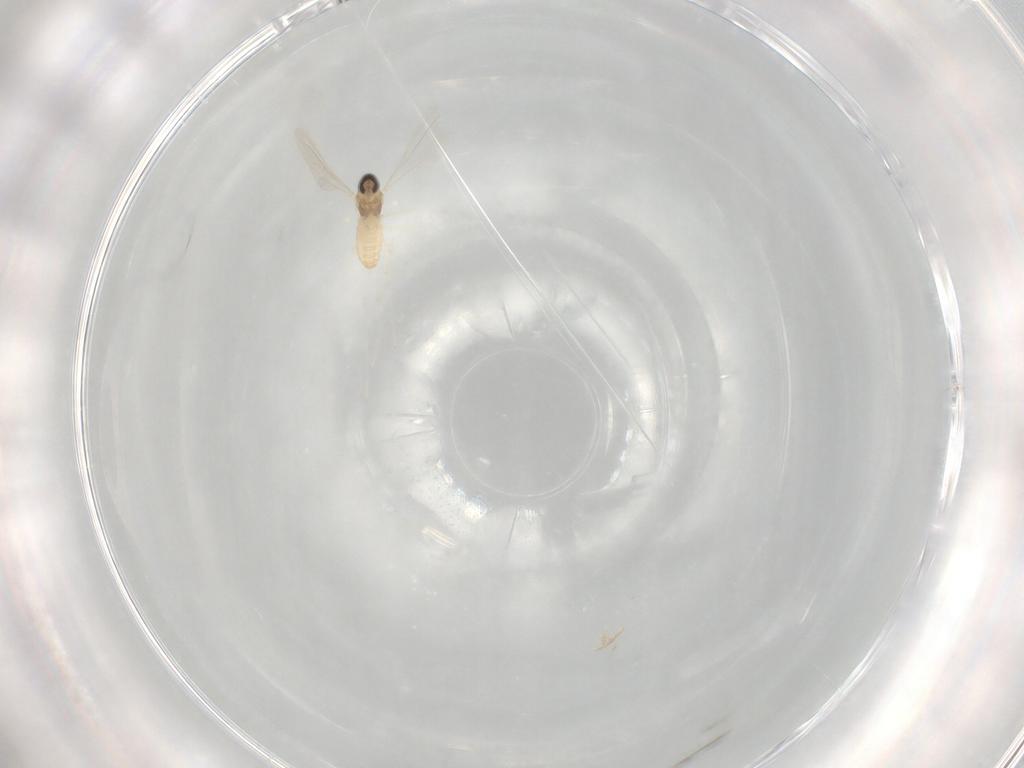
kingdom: Animalia
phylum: Arthropoda
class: Insecta
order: Diptera
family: Cecidomyiidae
